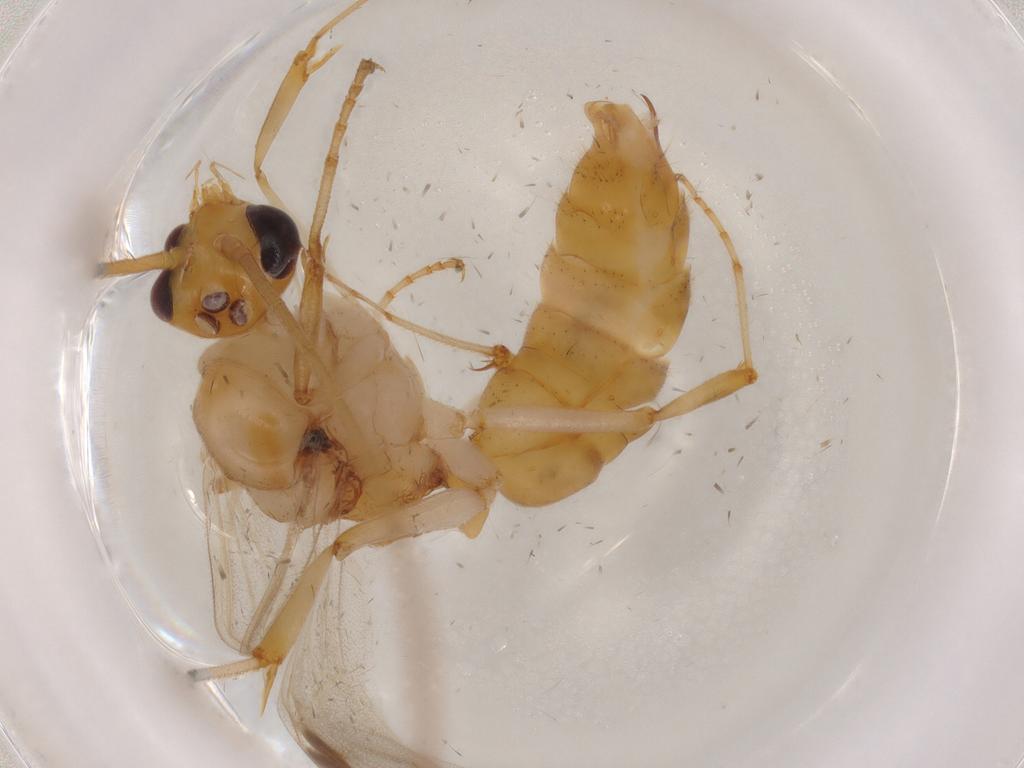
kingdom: Animalia
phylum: Arthropoda
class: Insecta
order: Hymenoptera
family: Formicidae
